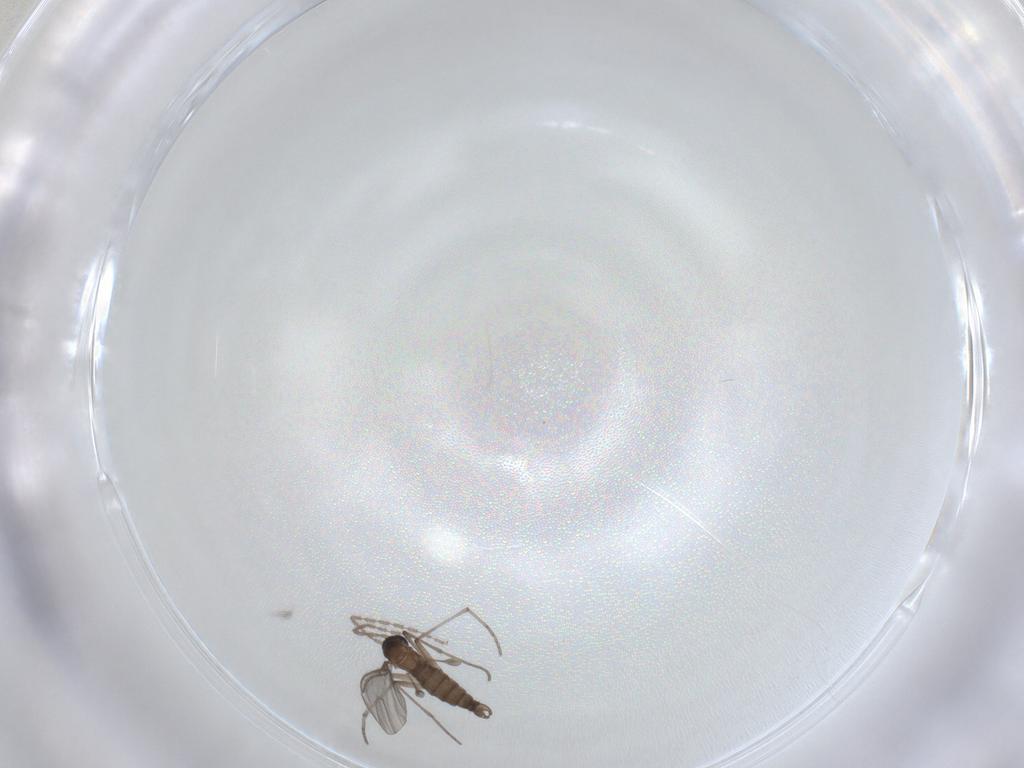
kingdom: Animalia
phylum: Arthropoda
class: Insecta
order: Diptera
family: Sciaridae
